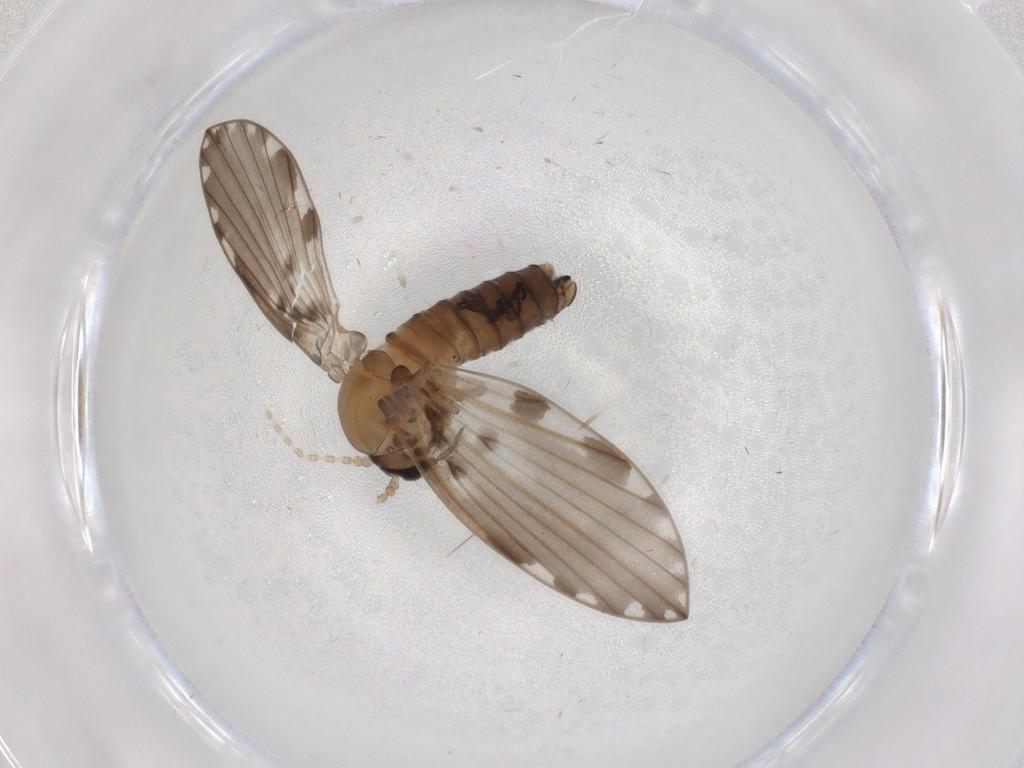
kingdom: Animalia
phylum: Arthropoda
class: Insecta
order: Diptera
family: Psychodidae
